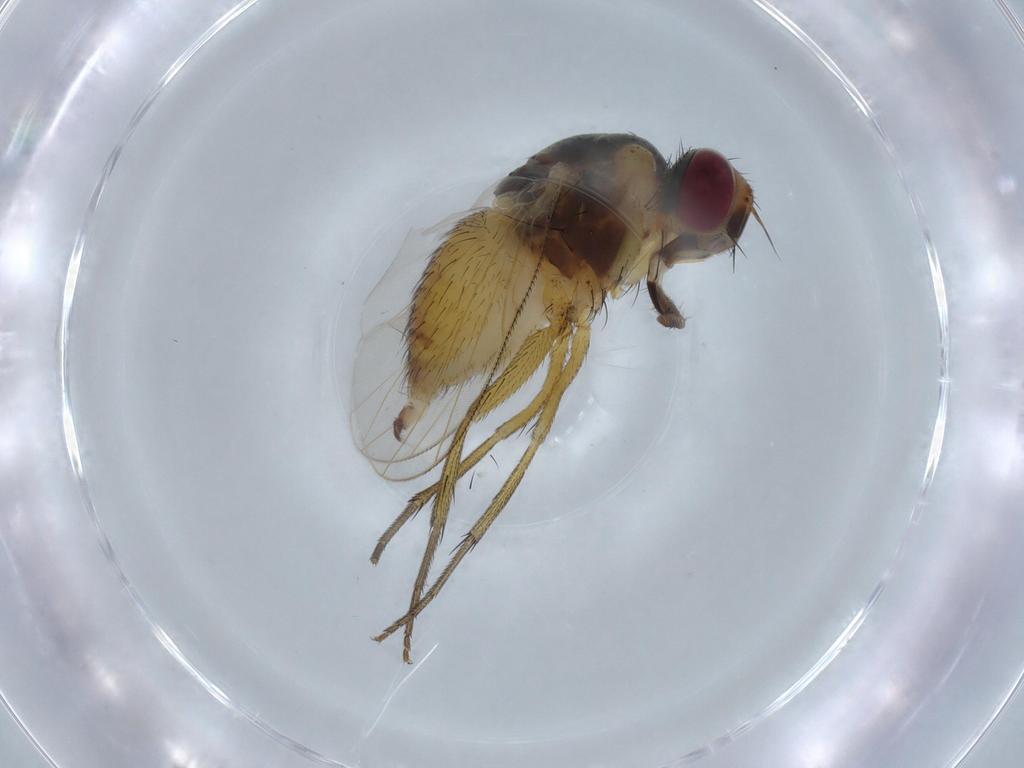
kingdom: Animalia
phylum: Arthropoda
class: Insecta
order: Diptera
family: Muscidae
